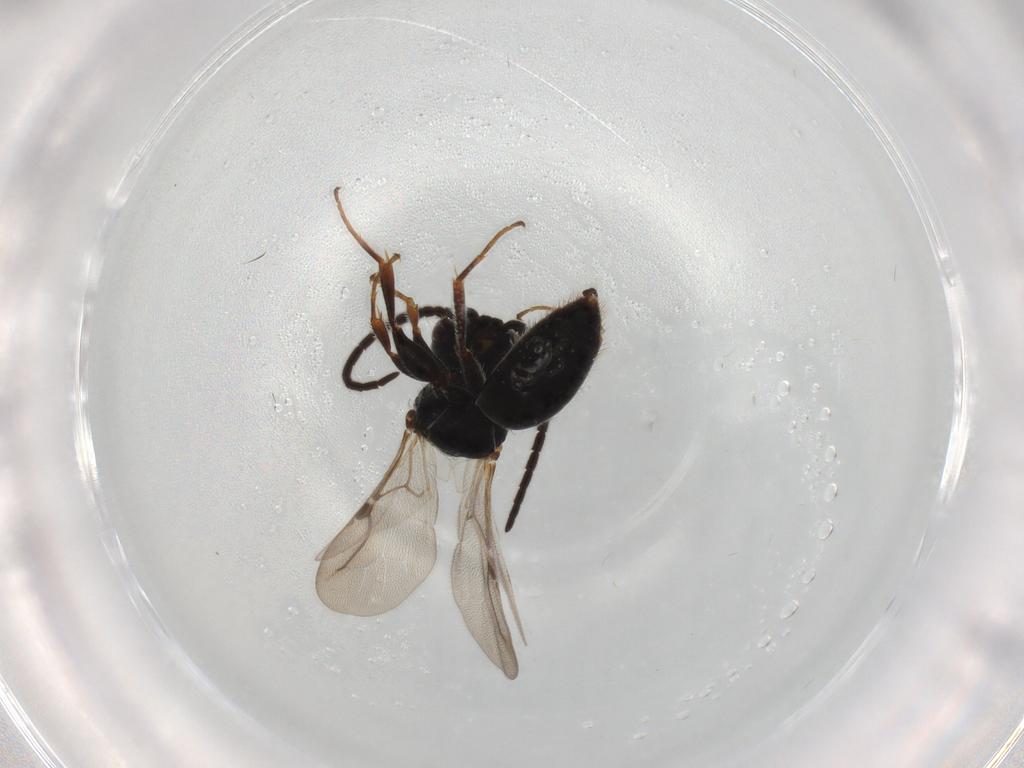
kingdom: Animalia
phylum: Arthropoda
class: Insecta
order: Hymenoptera
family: Bethylidae
